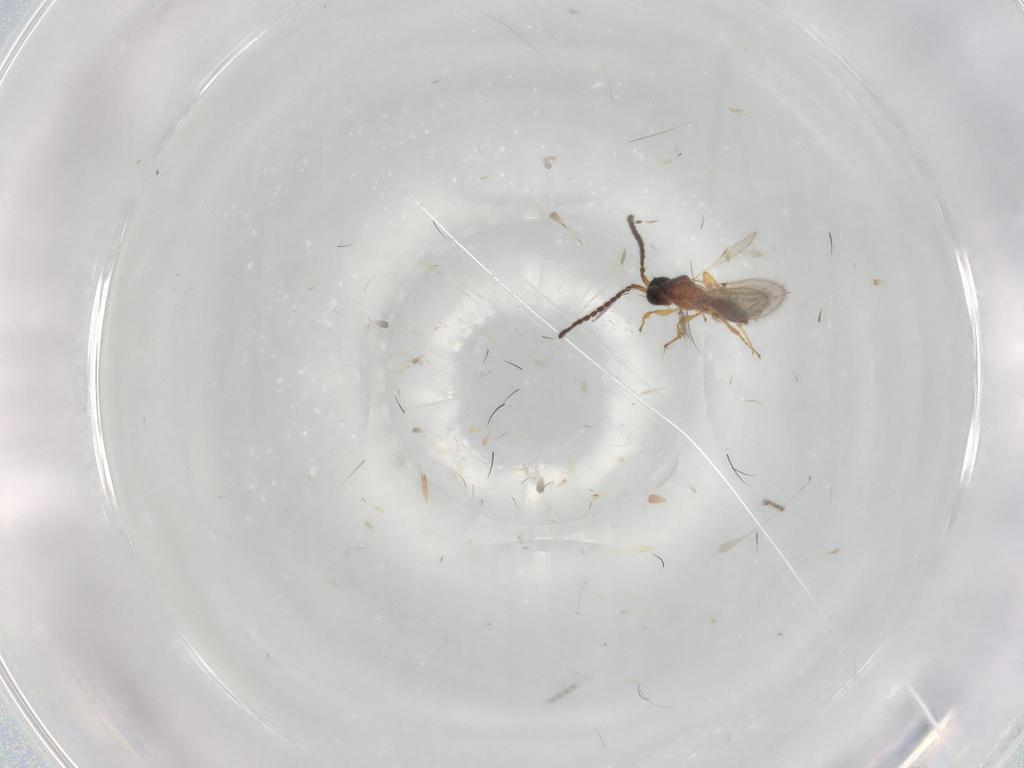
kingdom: Animalia
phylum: Arthropoda
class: Insecta
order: Hymenoptera
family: Diapriidae
